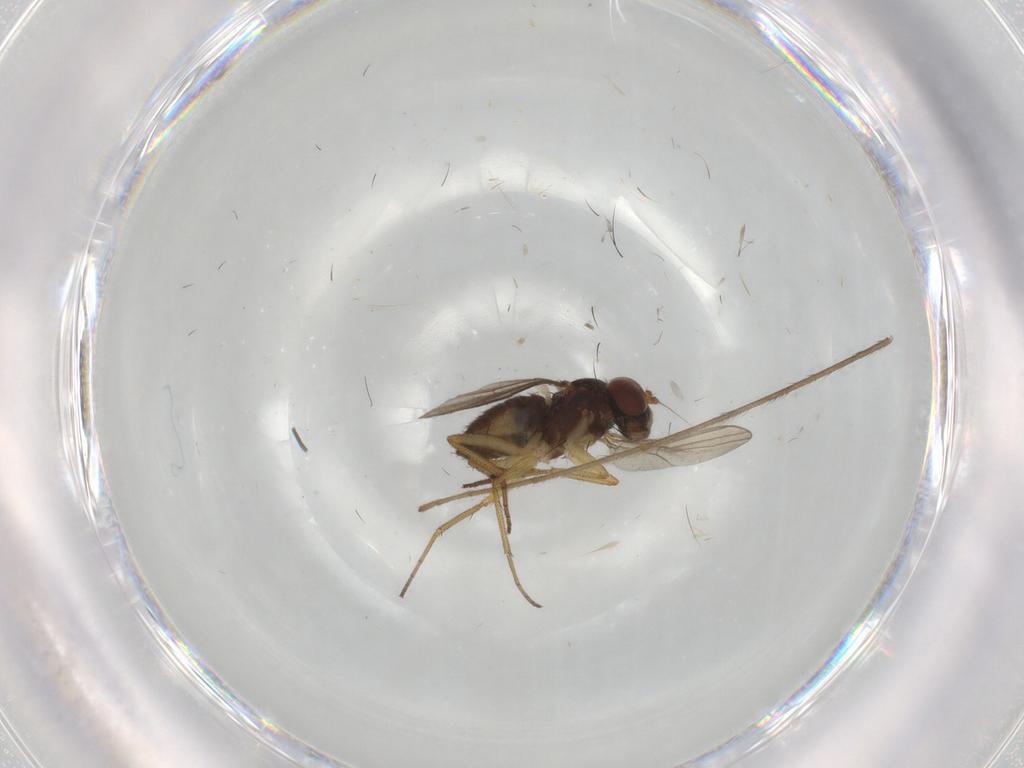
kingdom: Animalia
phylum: Arthropoda
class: Insecta
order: Diptera
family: Dolichopodidae
